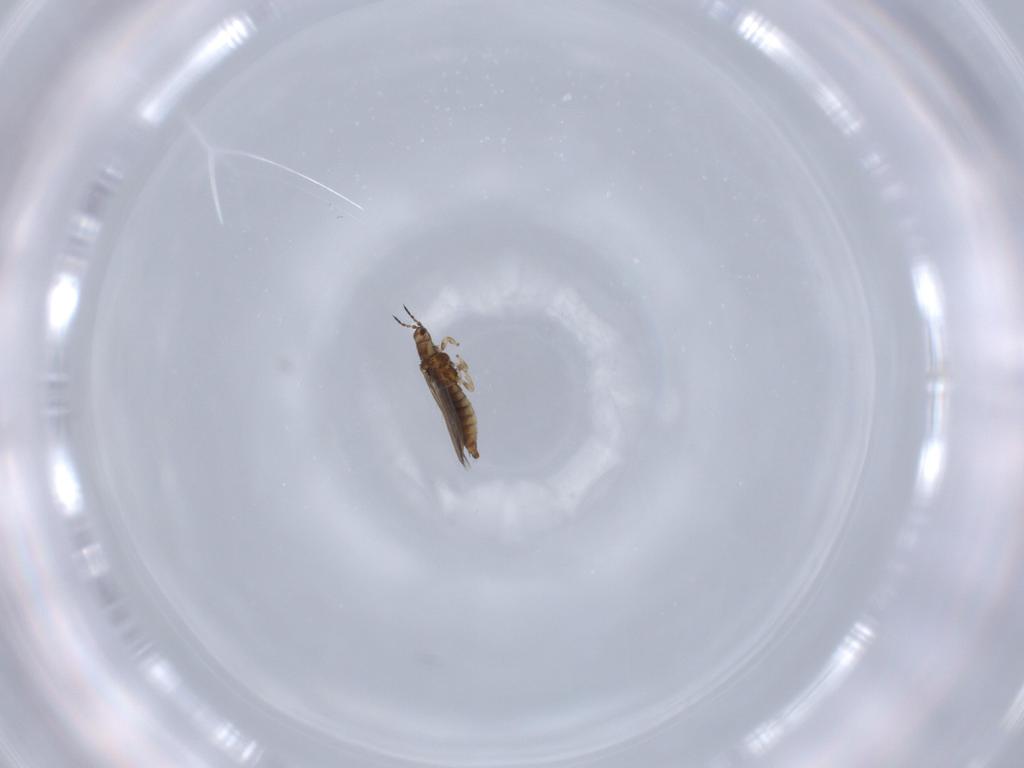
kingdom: Animalia
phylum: Arthropoda
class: Insecta
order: Thysanoptera
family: Thripidae
